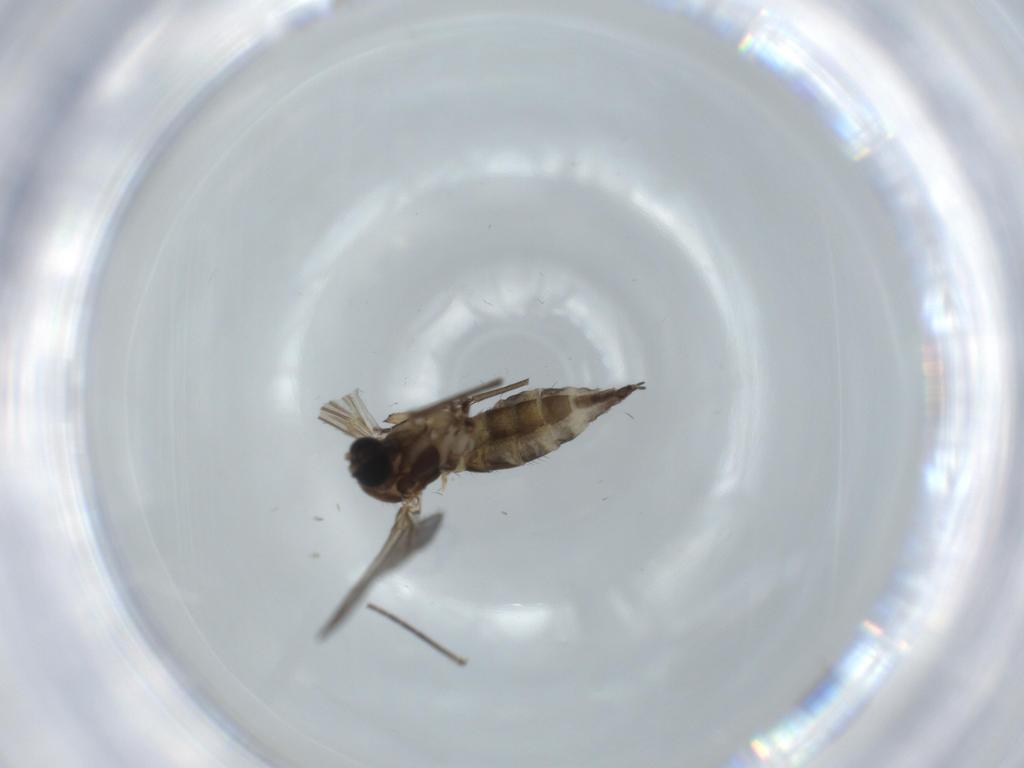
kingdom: Animalia
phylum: Arthropoda
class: Insecta
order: Diptera
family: Sciaridae
